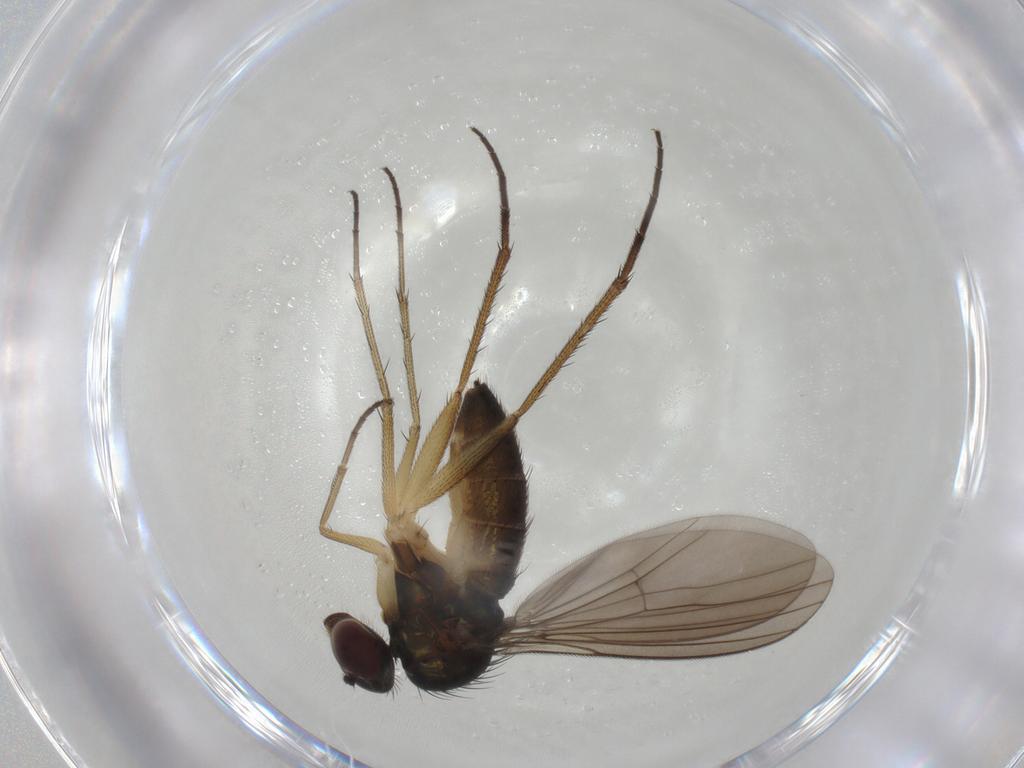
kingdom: Animalia
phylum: Arthropoda
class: Insecta
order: Diptera
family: Dolichopodidae
